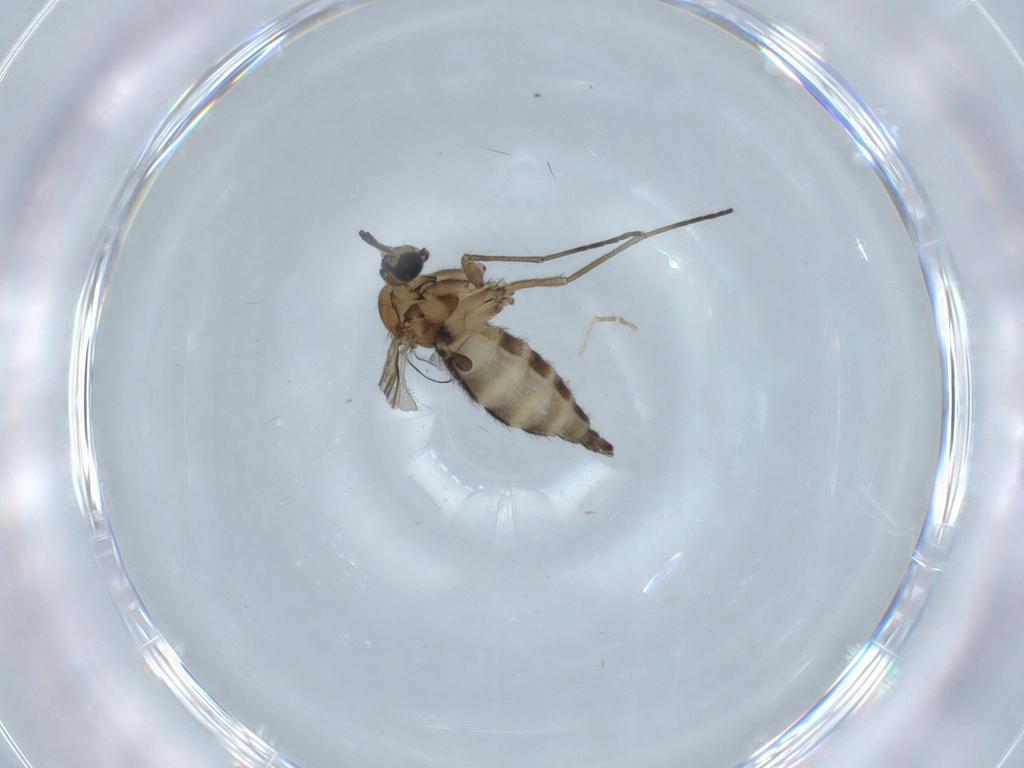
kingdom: Animalia
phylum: Arthropoda
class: Insecta
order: Diptera
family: Sciaridae
